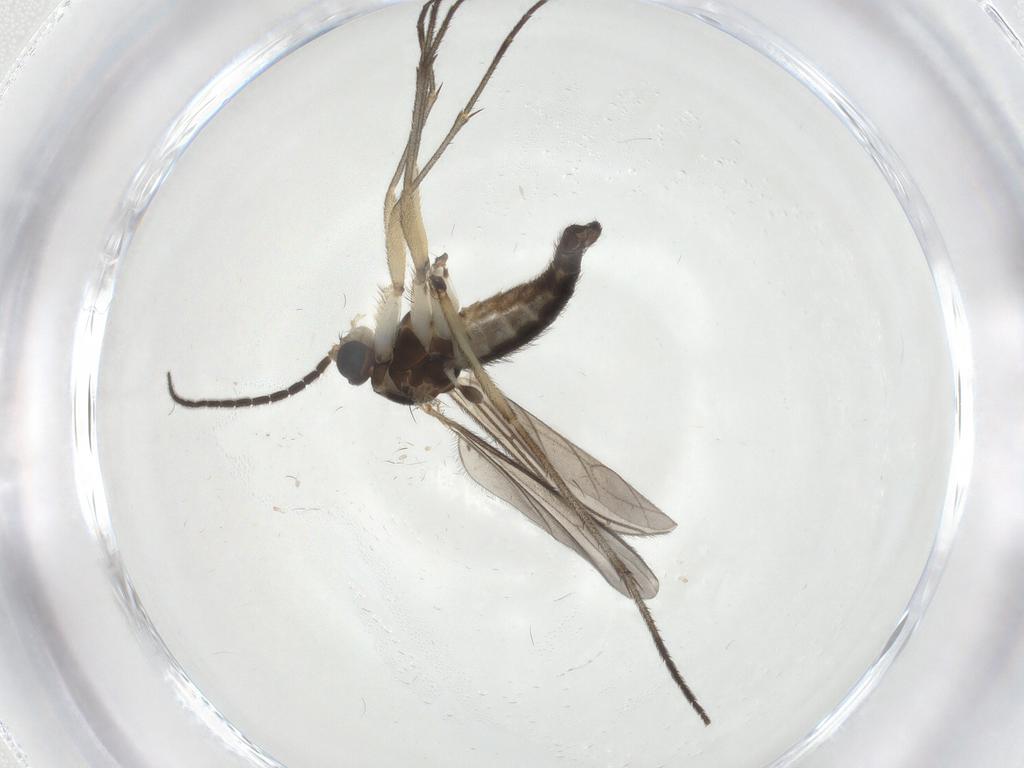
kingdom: Animalia
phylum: Arthropoda
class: Insecta
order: Diptera
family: Sciaridae
